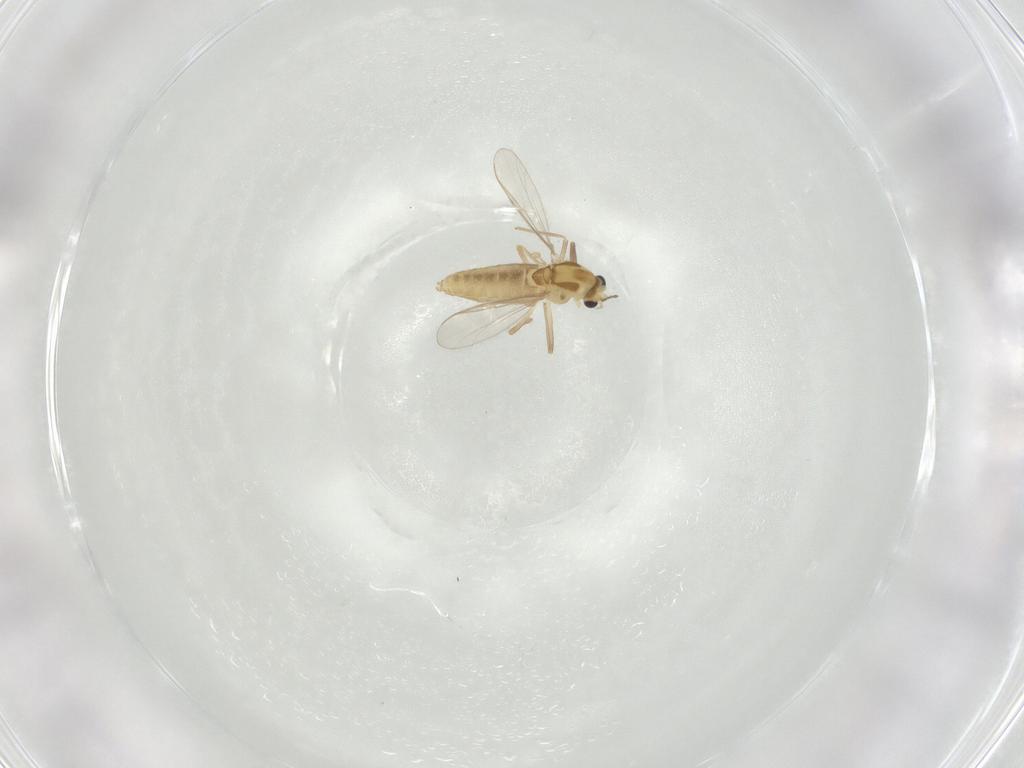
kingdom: Animalia
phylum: Arthropoda
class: Insecta
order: Diptera
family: Chironomidae
